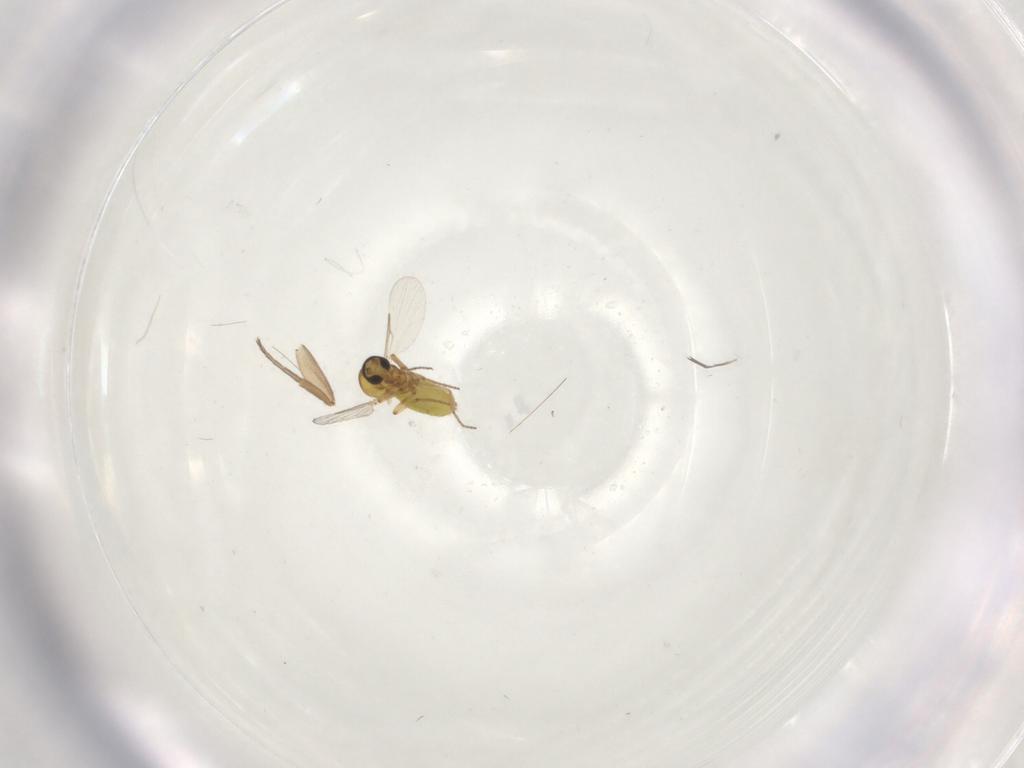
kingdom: Animalia
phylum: Arthropoda
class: Insecta
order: Diptera
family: Ceratopogonidae
